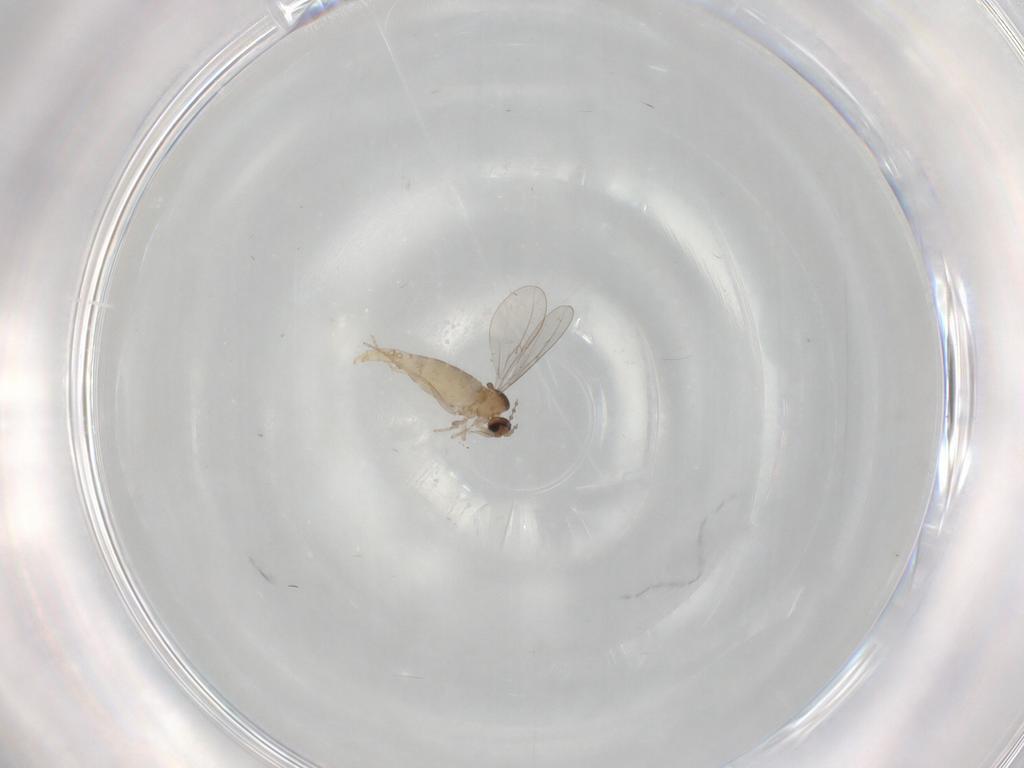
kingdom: Animalia
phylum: Arthropoda
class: Insecta
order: Diptera
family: Cecidomyiidae
